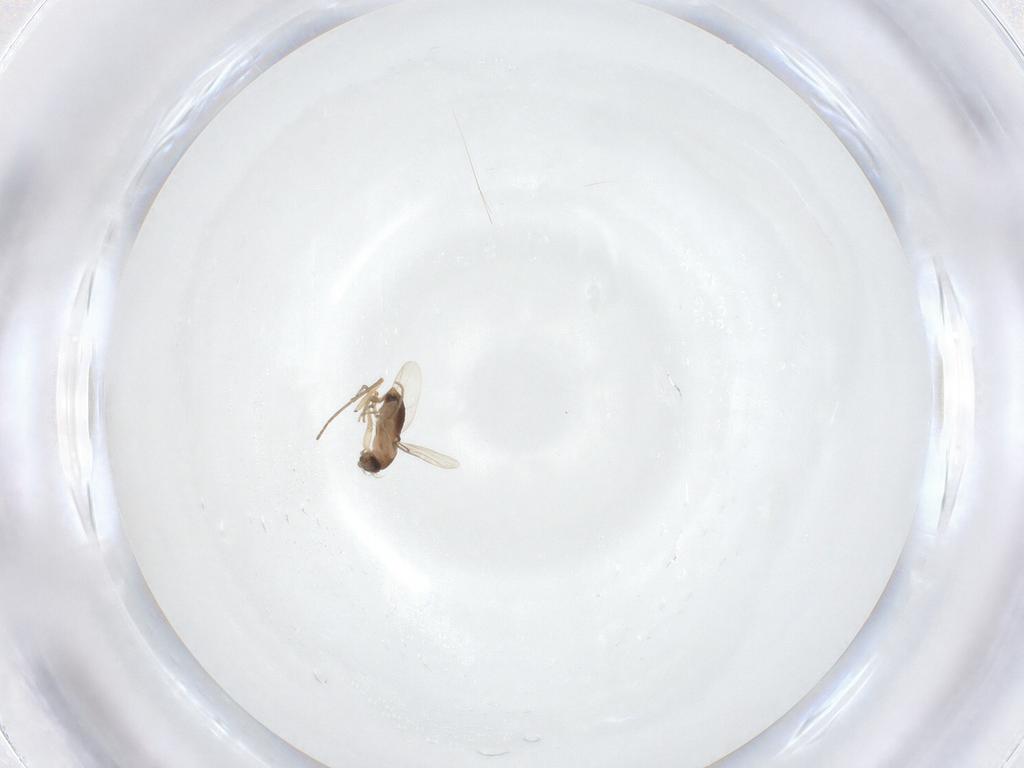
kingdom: Animalia
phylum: Arthropoda
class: Insecta
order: Diptera
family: Phoridae
